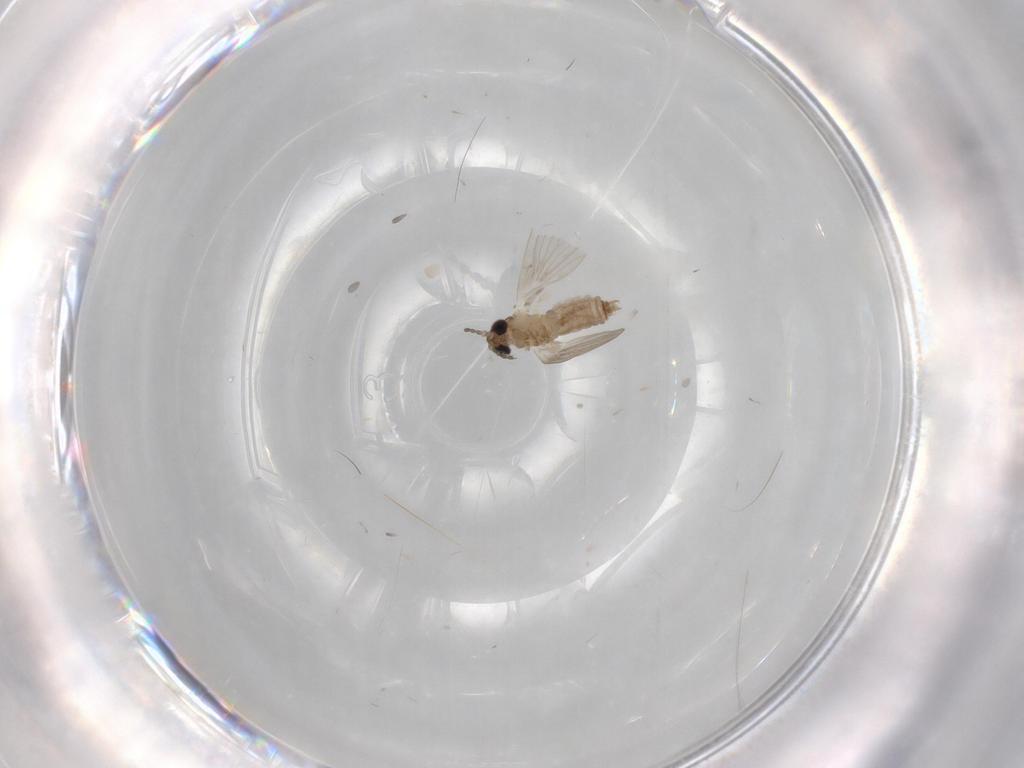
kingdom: Animalia
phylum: Arthropoda
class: Insecta
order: Diptera
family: Psychodidae
